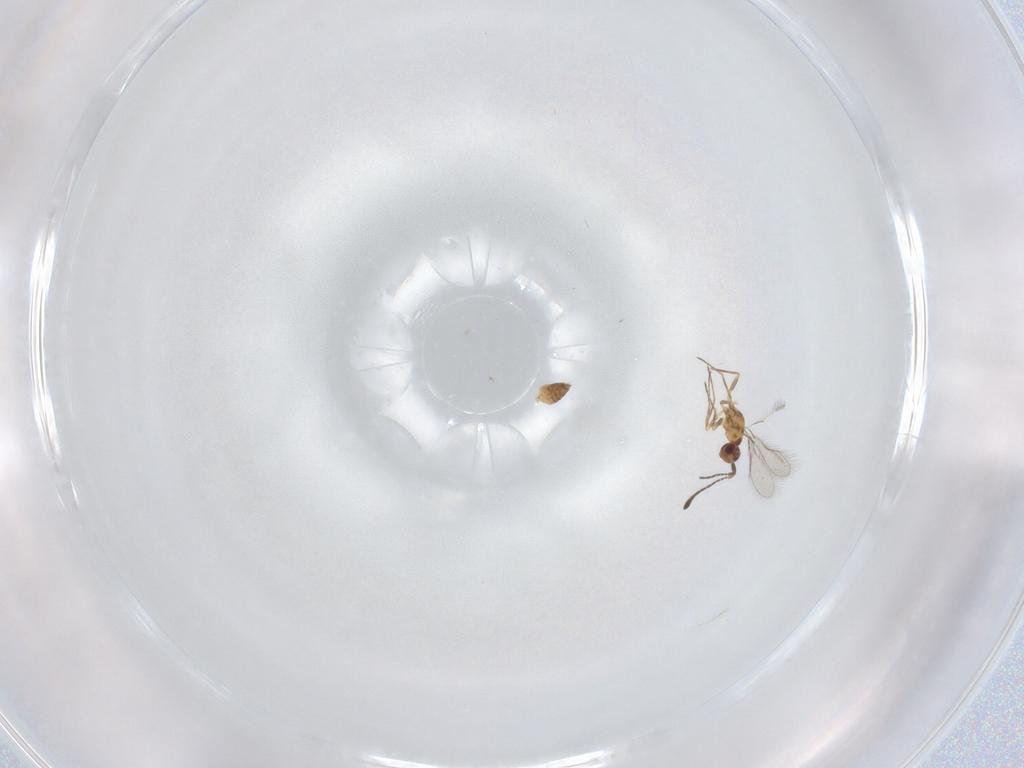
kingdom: Animalia
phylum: Arthropoda
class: Insecta
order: Hymenoptera
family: Mymaridae
